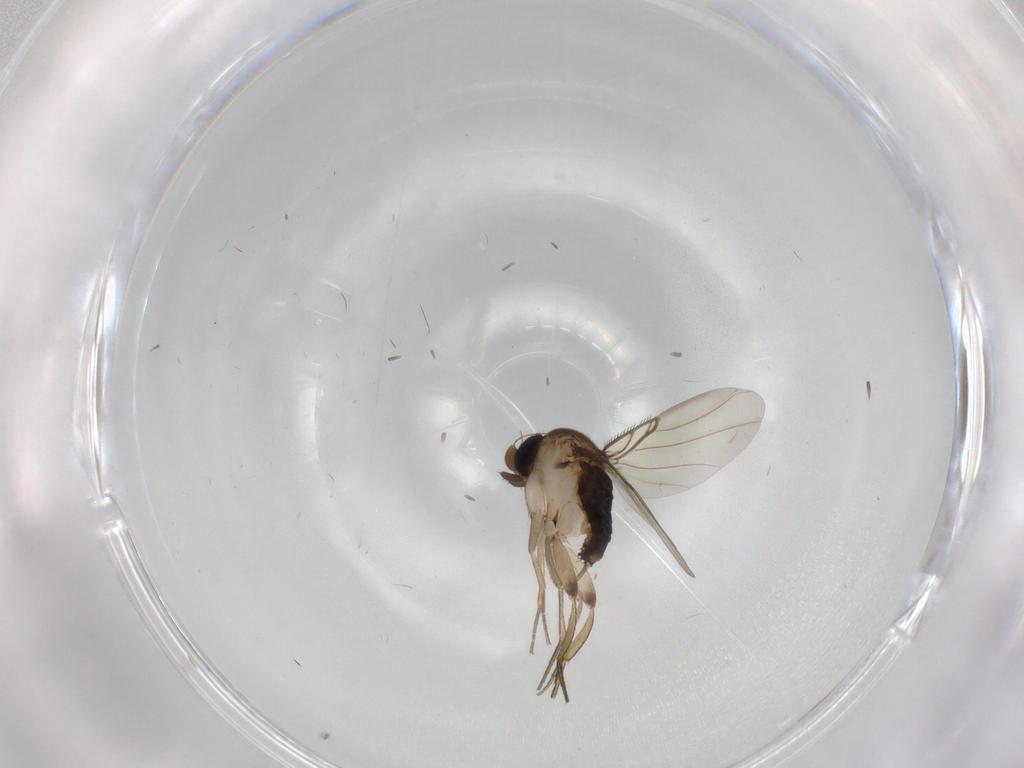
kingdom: Animalia
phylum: Arthropoda
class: Insecta
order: Diptera
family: Phoridae
